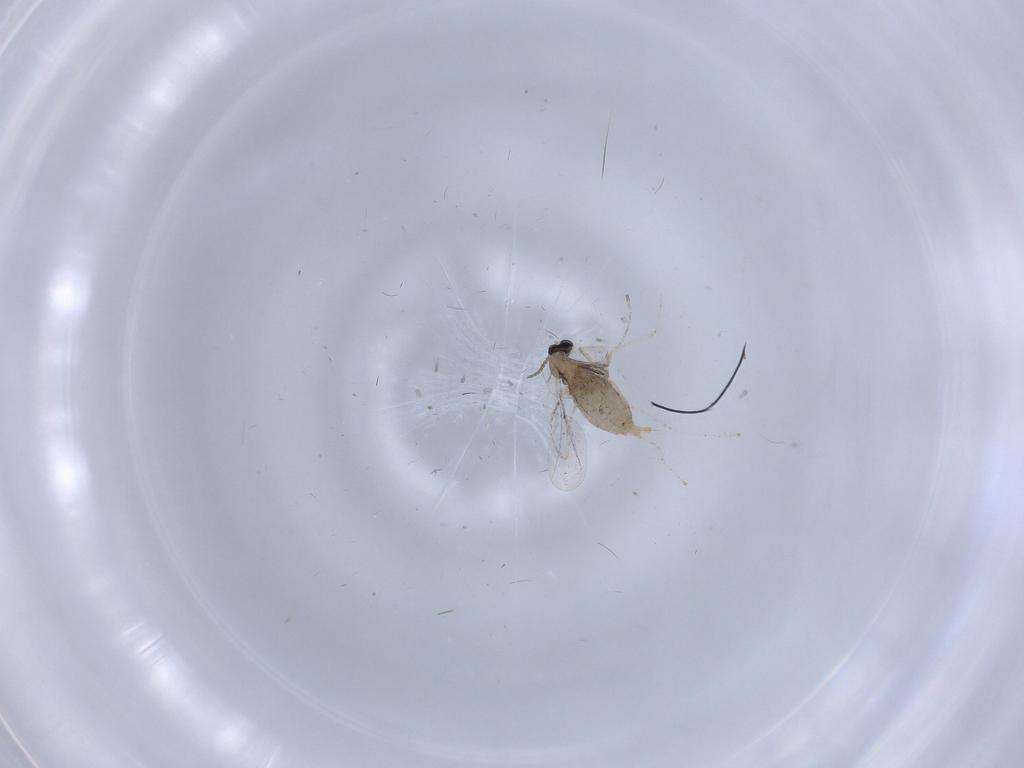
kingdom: Animalia
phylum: Arthropoda
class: Insecta
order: Diptera
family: Cecidomyiidae
